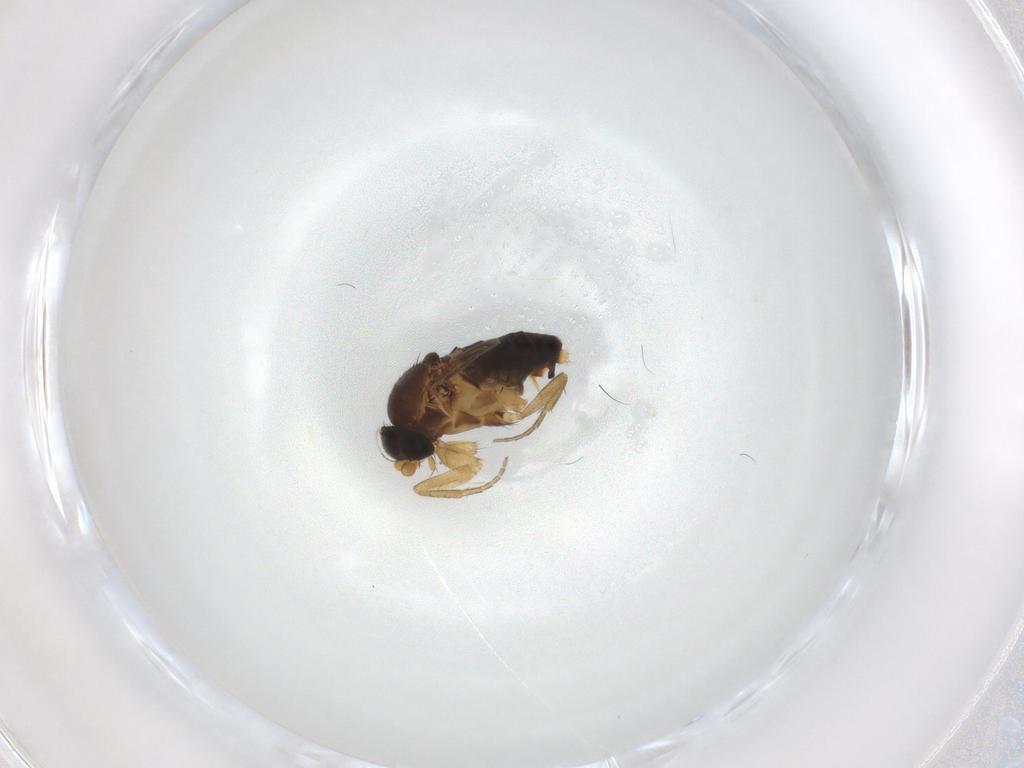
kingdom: Animalia
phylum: Arthropoda
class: Insecta
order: Diptera
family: Phoridae
